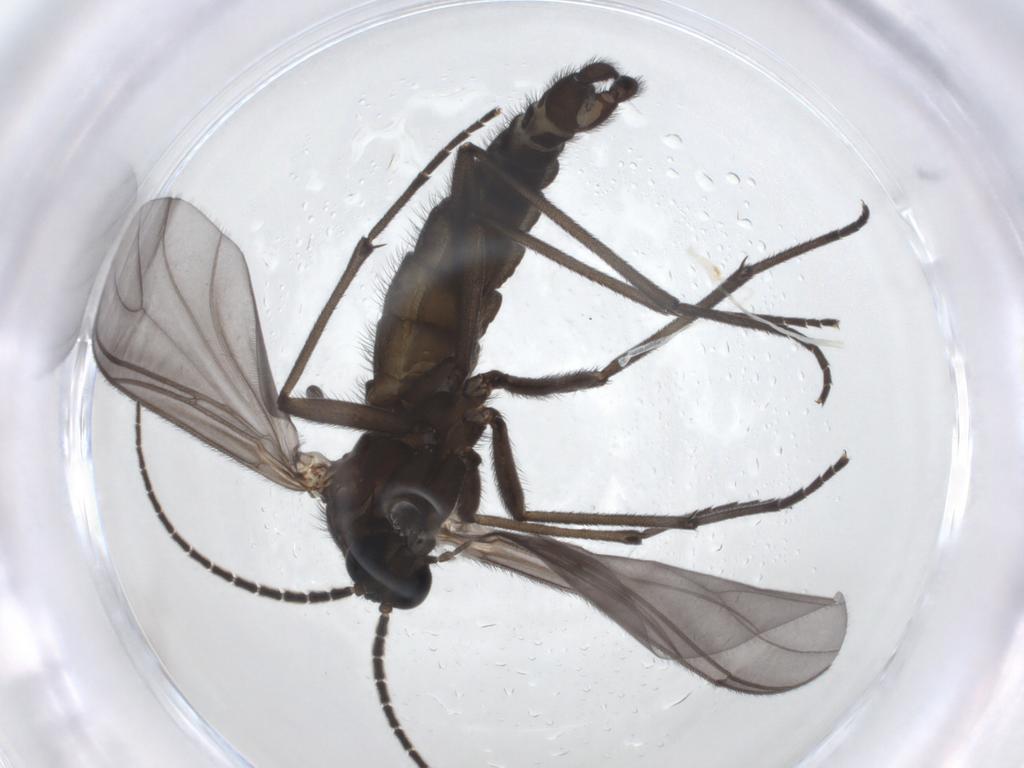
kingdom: Animalia
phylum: Arthropoda
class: Insecta
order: Diptera
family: Sciaridae
